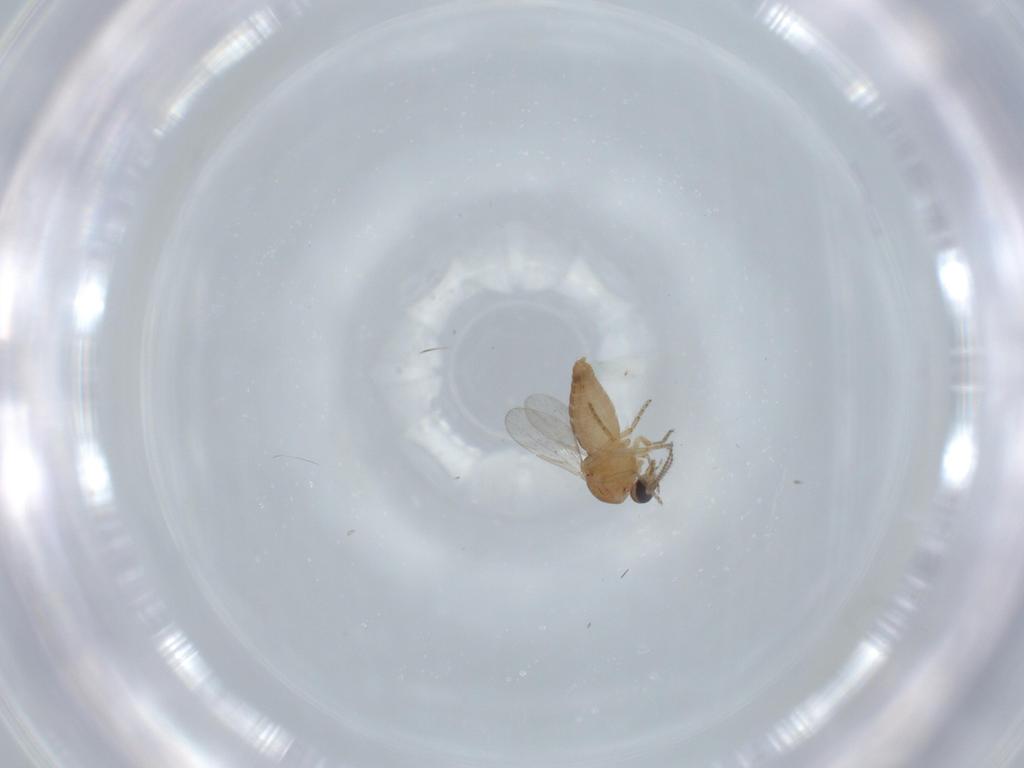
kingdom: Animalia
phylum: Arthropoda
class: Insecta
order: Diptera
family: Ceratopogonidae
